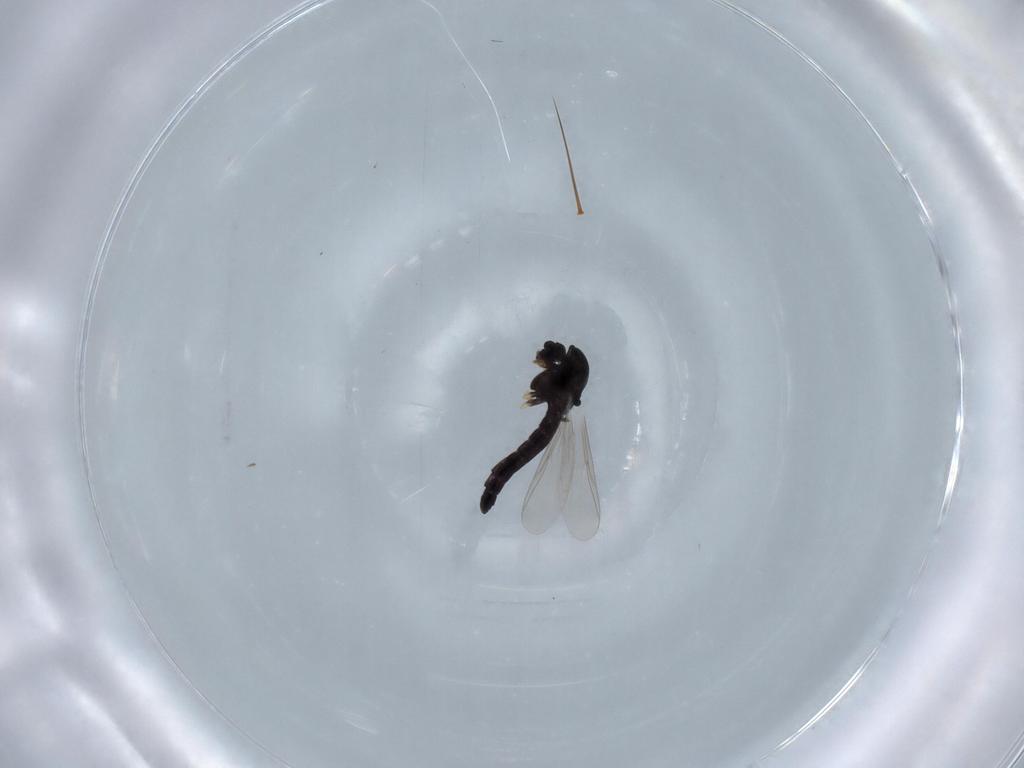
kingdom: Animalia
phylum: Arthropoda
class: Insecta
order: Diptera
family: Chironomidae
